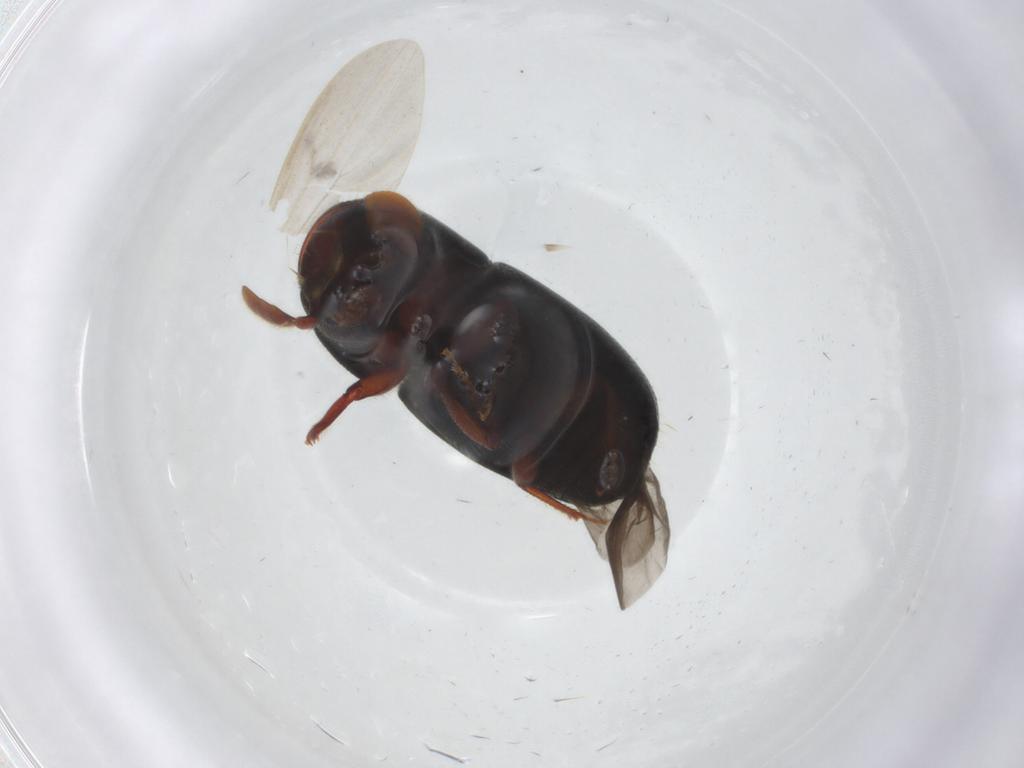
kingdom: Animalia
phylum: Arthropoda
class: Insecta
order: Coleoptera
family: Curculionidae
